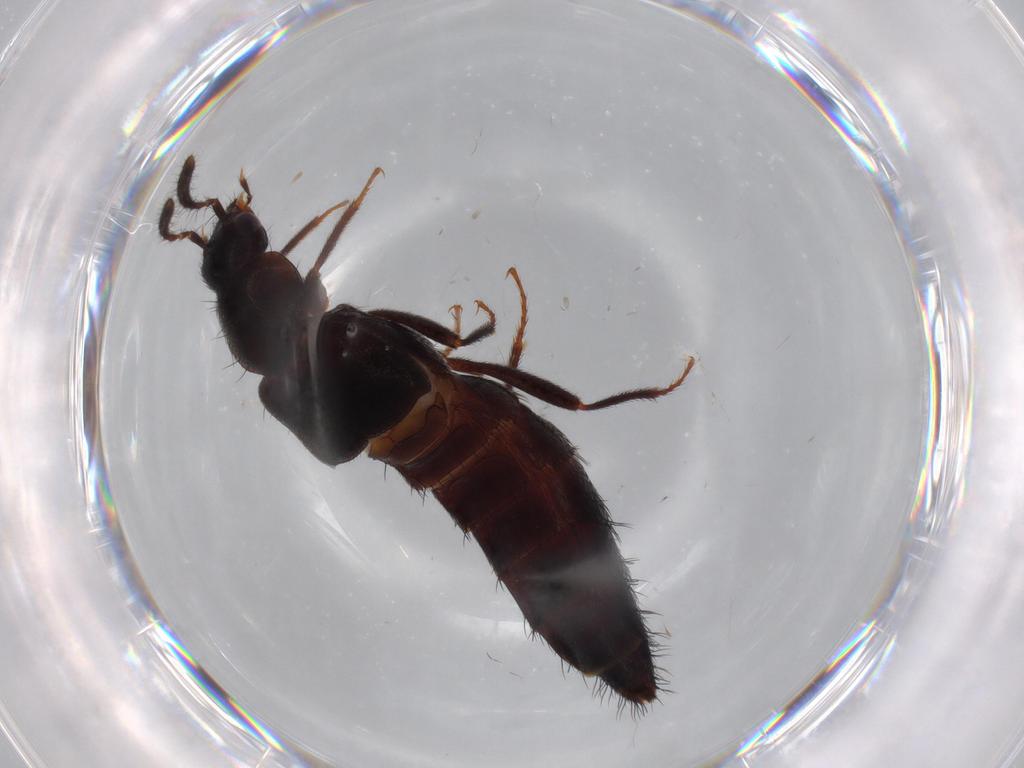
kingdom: Animalia
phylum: Arthropoda
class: Insecta
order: Coleoptera
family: Staphylinidae
